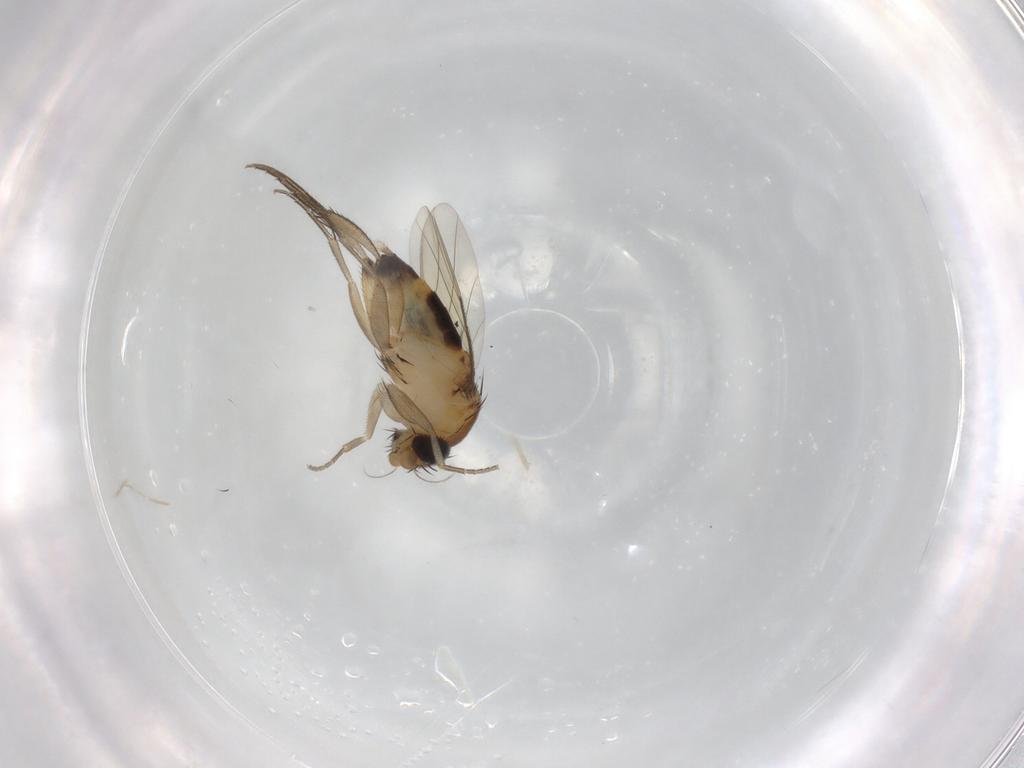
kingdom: Animalia
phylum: Arthropoda
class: Insecta
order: Diptera
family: Phoridae
